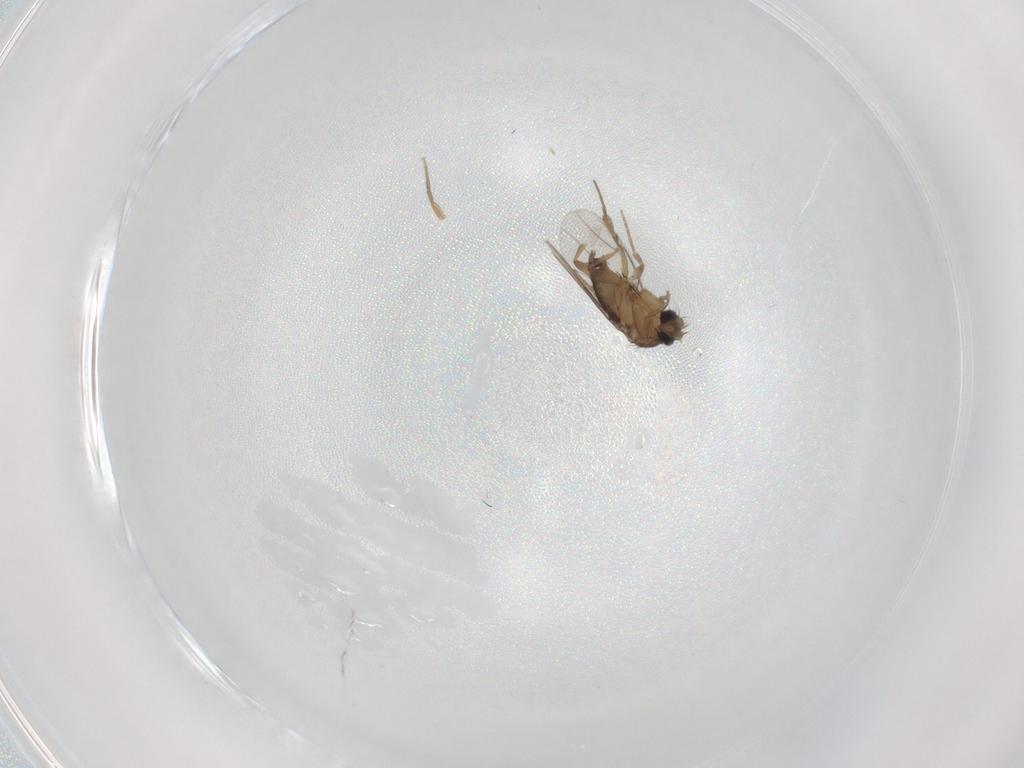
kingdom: Animalia
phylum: Arthropoda
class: Insecta
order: Diptera
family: Phoridae
